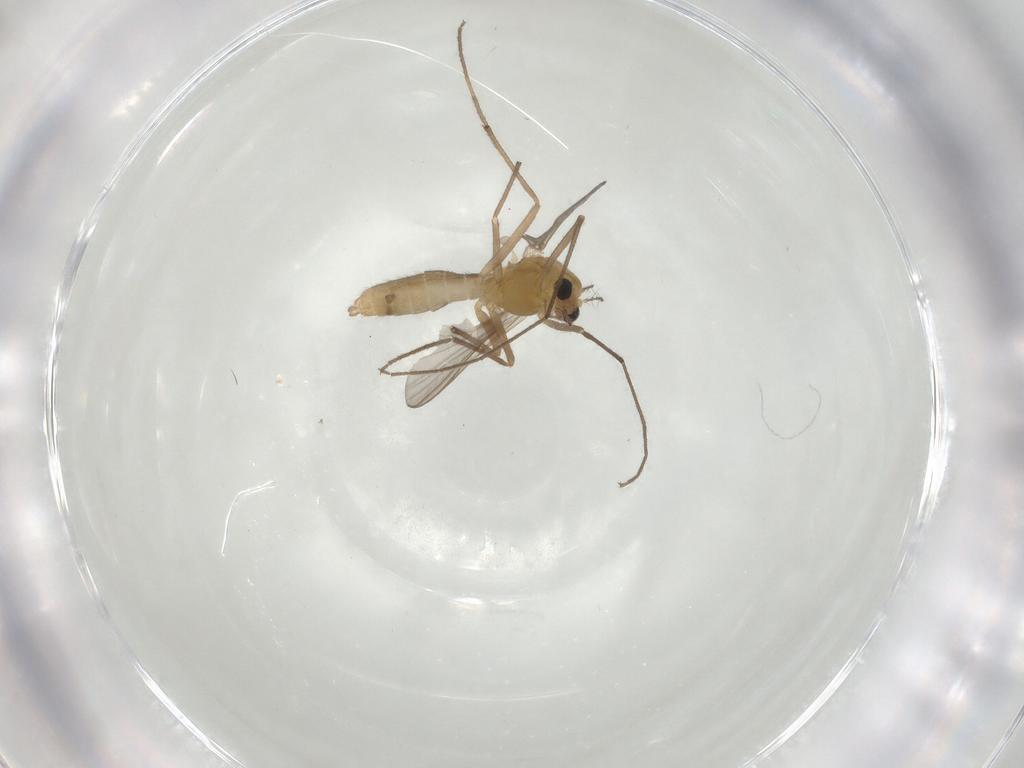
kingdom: Animalia
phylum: Arthropoda
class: Insecta
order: Diptera
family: Chironomidae
